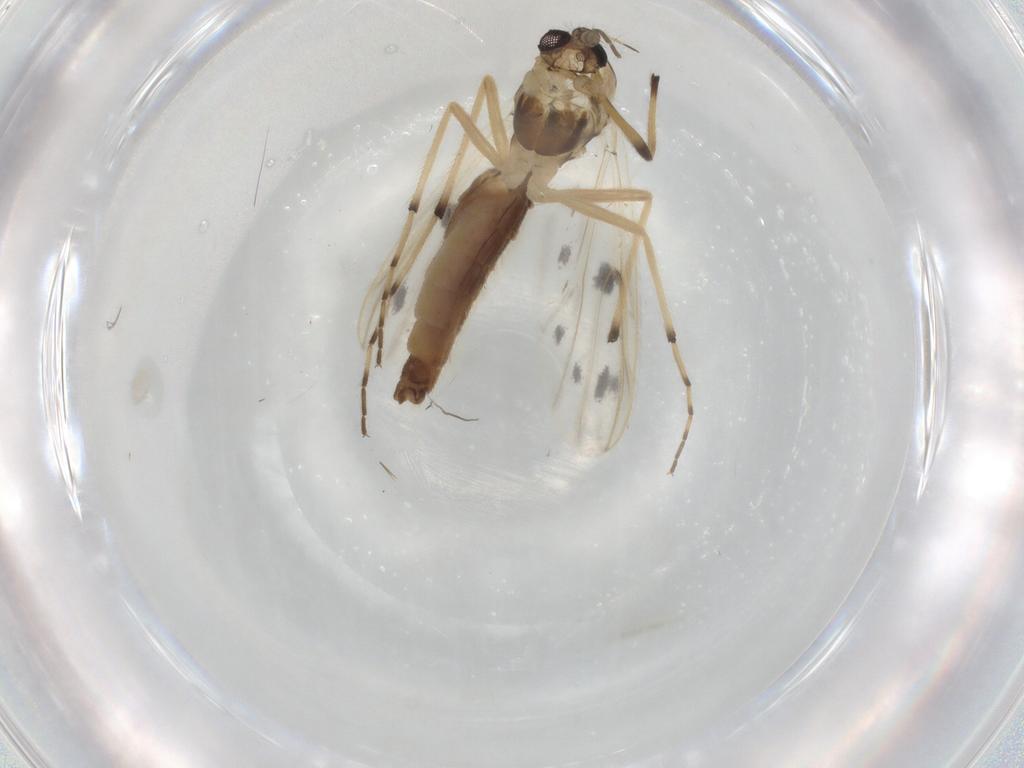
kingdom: Animalia
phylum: Arthropoda
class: Insecta
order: Diptera
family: Chironomidae
